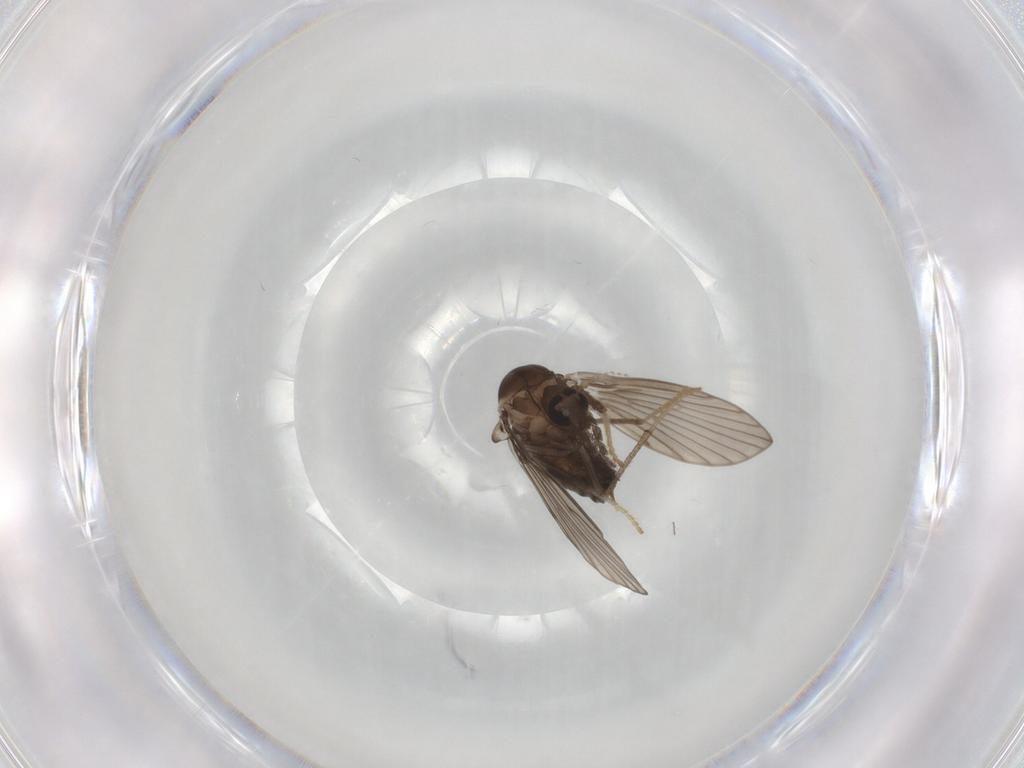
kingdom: Animalia
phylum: Arthropoda
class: Insecta
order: Diptera
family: Psychodidae
